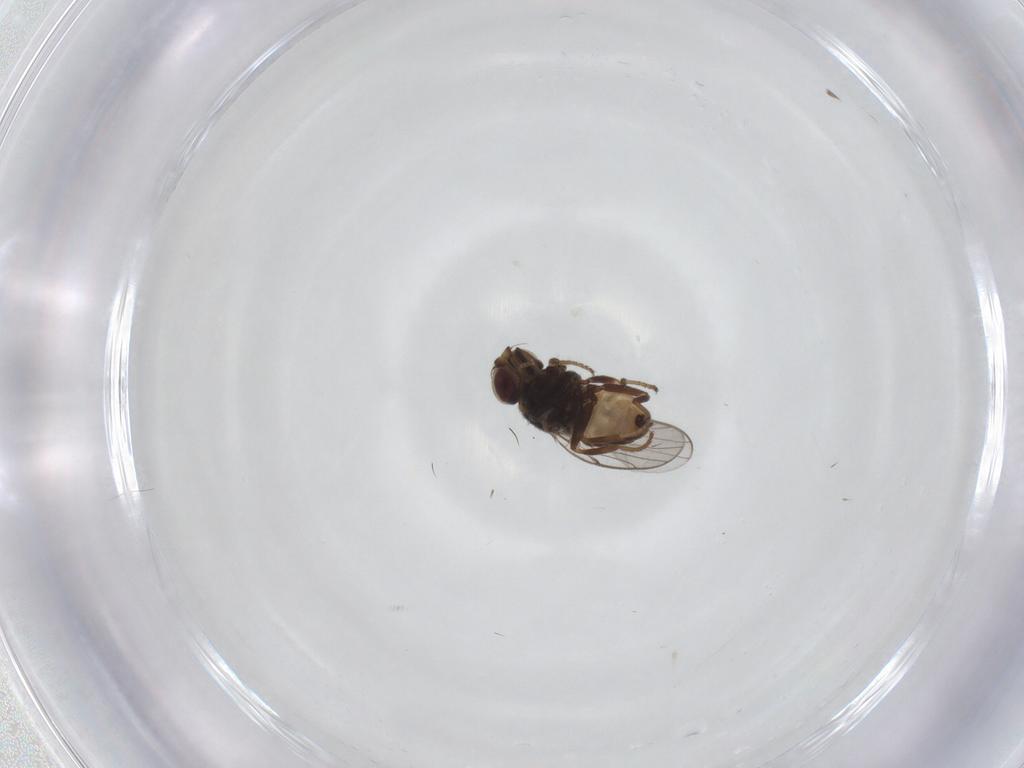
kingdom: Animalia
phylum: Arthropoda
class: Insecta
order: Diptera
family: Chloropidae
